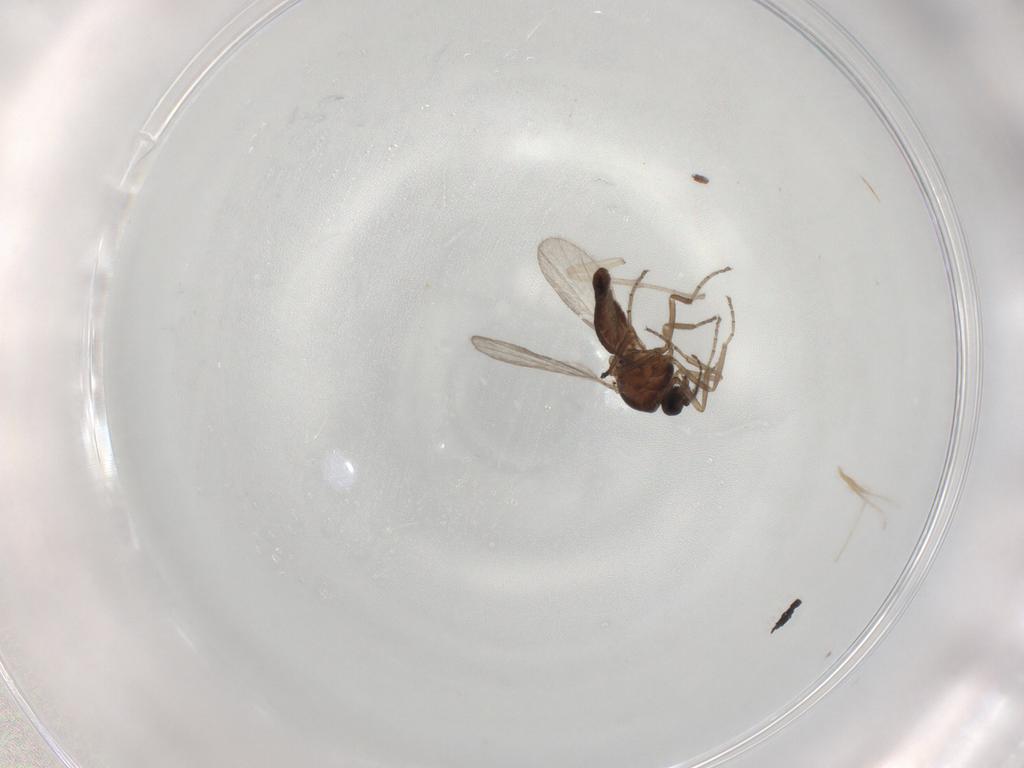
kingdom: Animalia
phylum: Arthropoda
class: Insecta
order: Diptera
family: Ceratopogonidae
